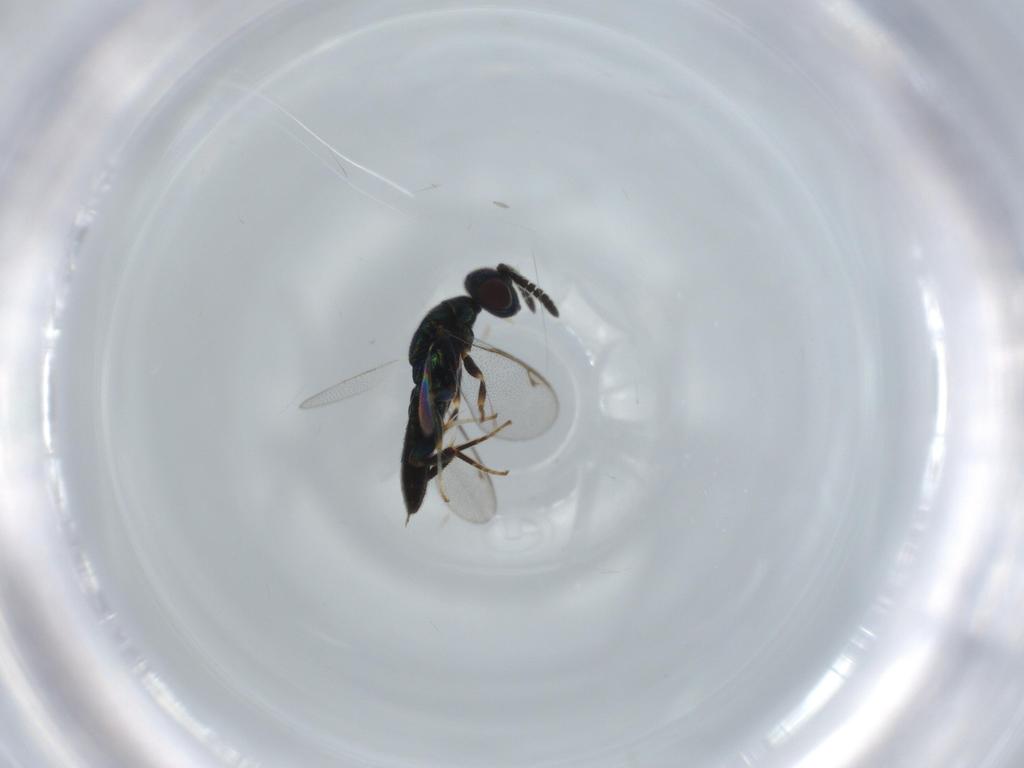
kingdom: Animalia
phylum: Arthropoda
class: Insecta
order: Hymenoptera
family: Cleonyminae
